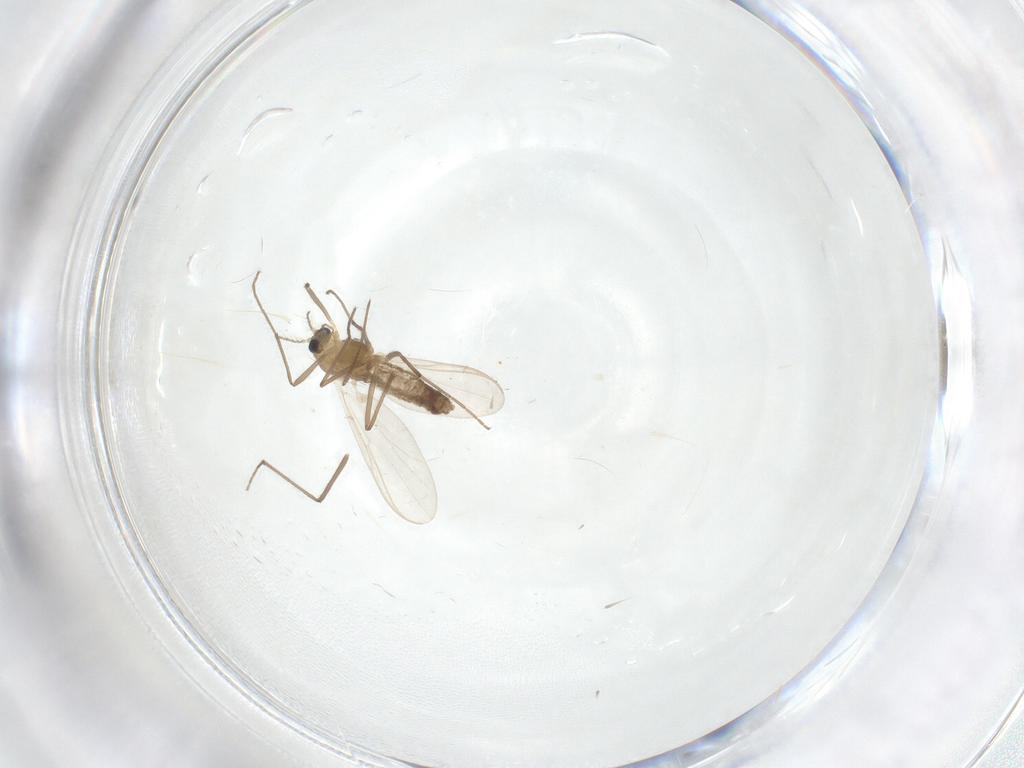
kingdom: Animalia
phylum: Arthropoda
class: Insecta
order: Diptera
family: Chironomidae
